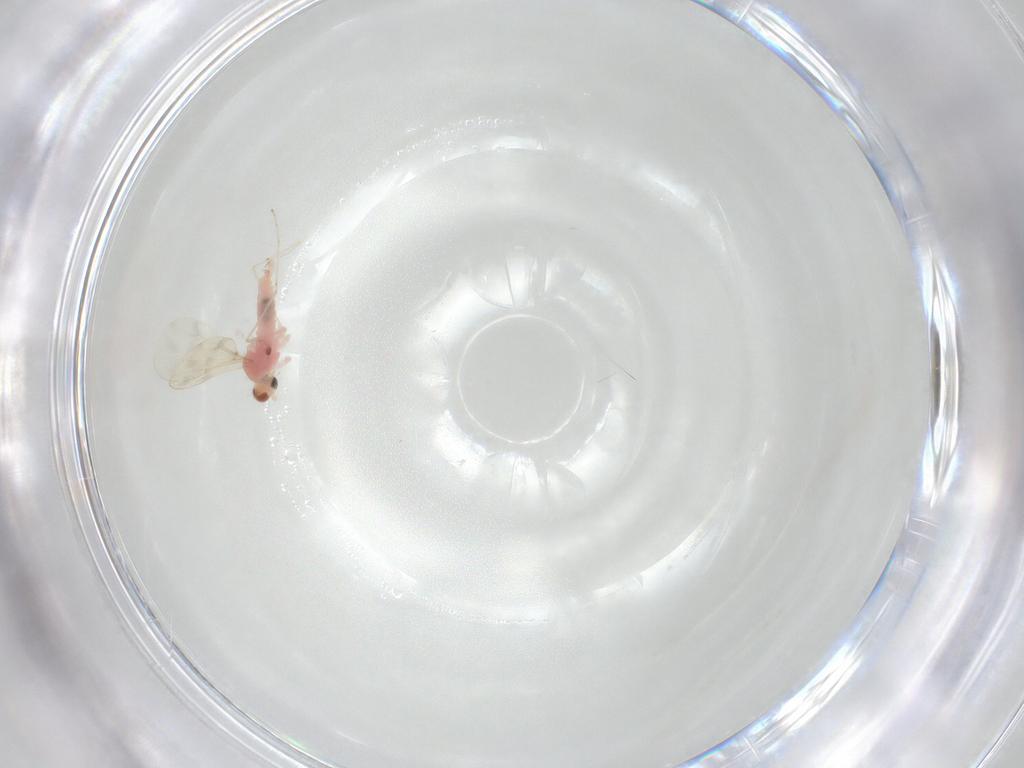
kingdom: Animalia
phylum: Arthropoda
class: Insecta
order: Diptera
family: Cecidomyiidae
